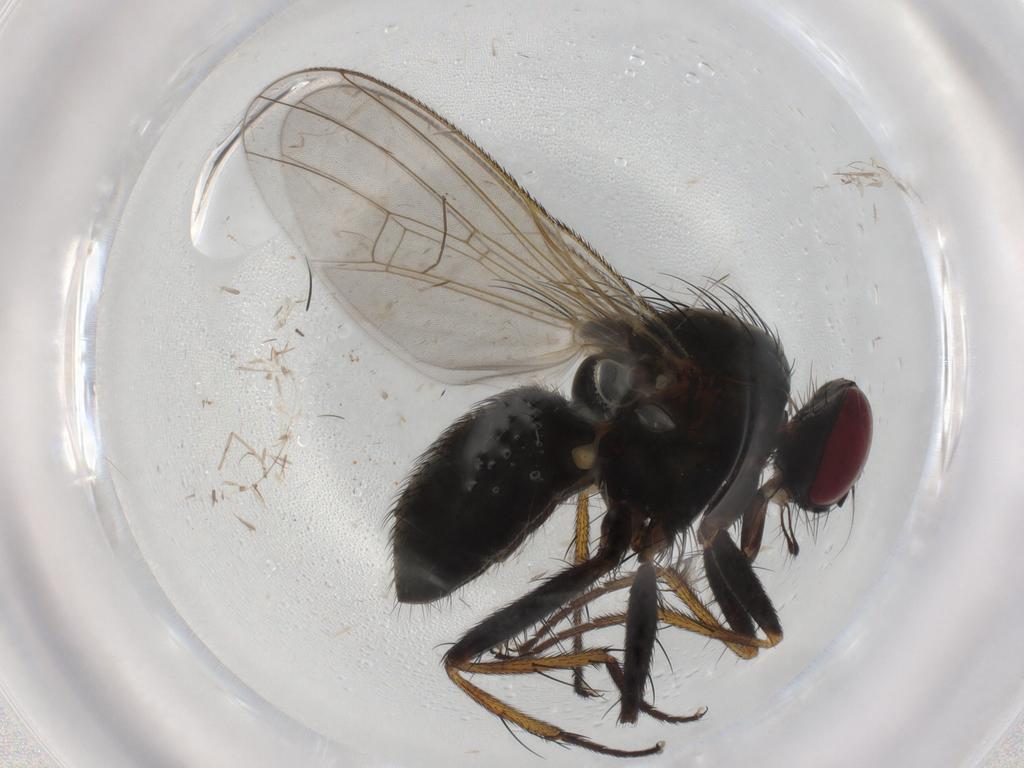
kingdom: Animalia
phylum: Arthropoda
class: Insecta
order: Diptera
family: Muscidae
